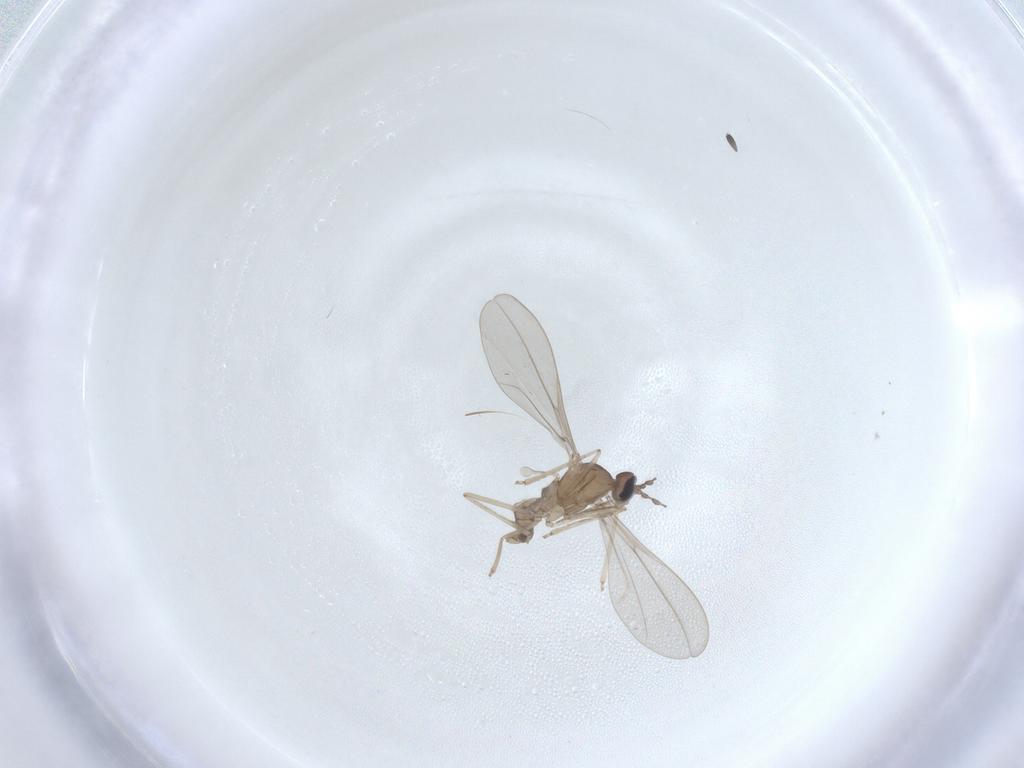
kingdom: Animalia
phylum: Arthropoda
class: Insecta
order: Diptera
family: Cecidomyiidae
